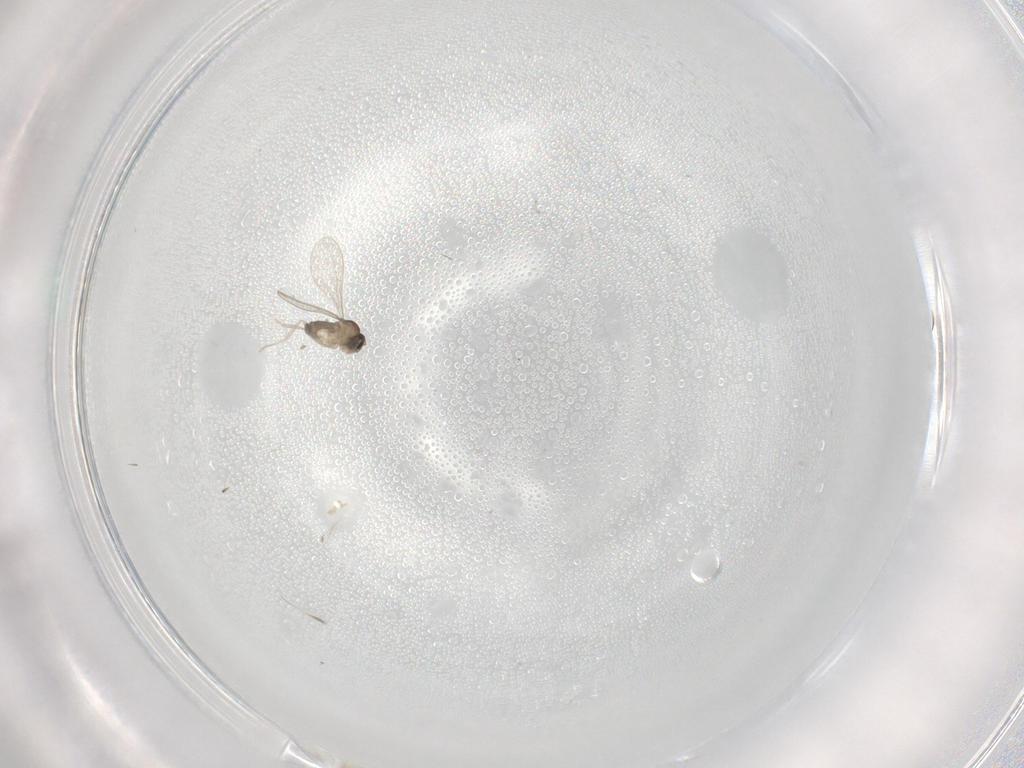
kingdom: Animalia
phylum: Arthropoda
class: Insecta
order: Diptera
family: Cecidomyiidae
